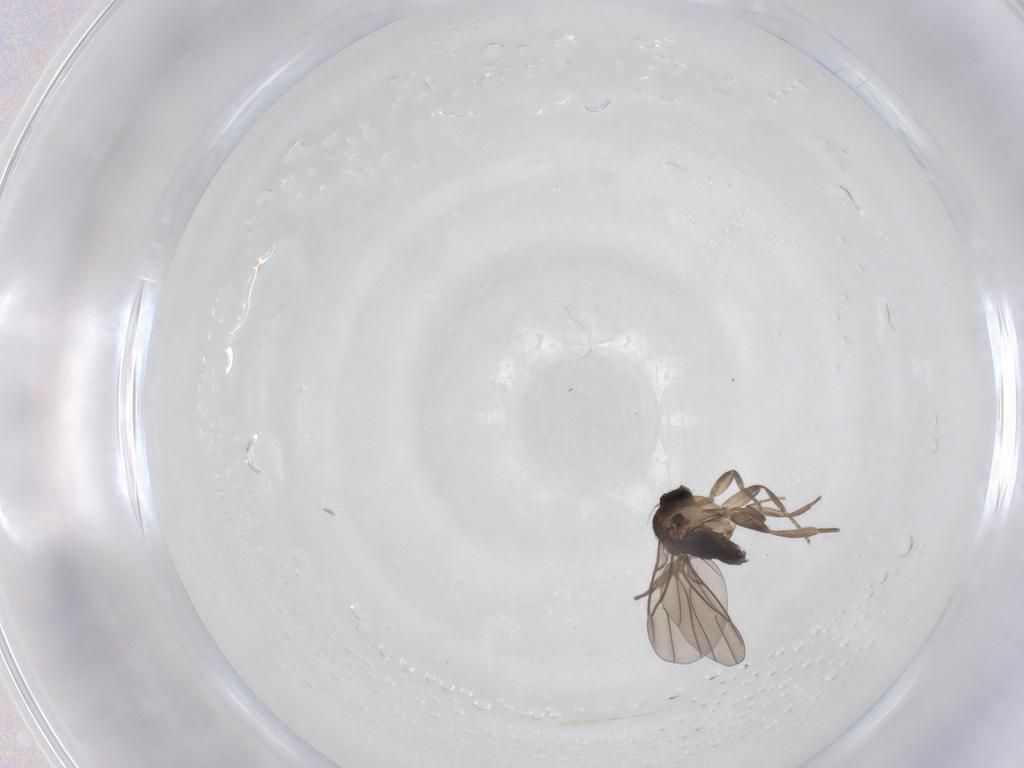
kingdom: Animalia
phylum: Arthropoda
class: Insecta
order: Diptera
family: Phoridae
